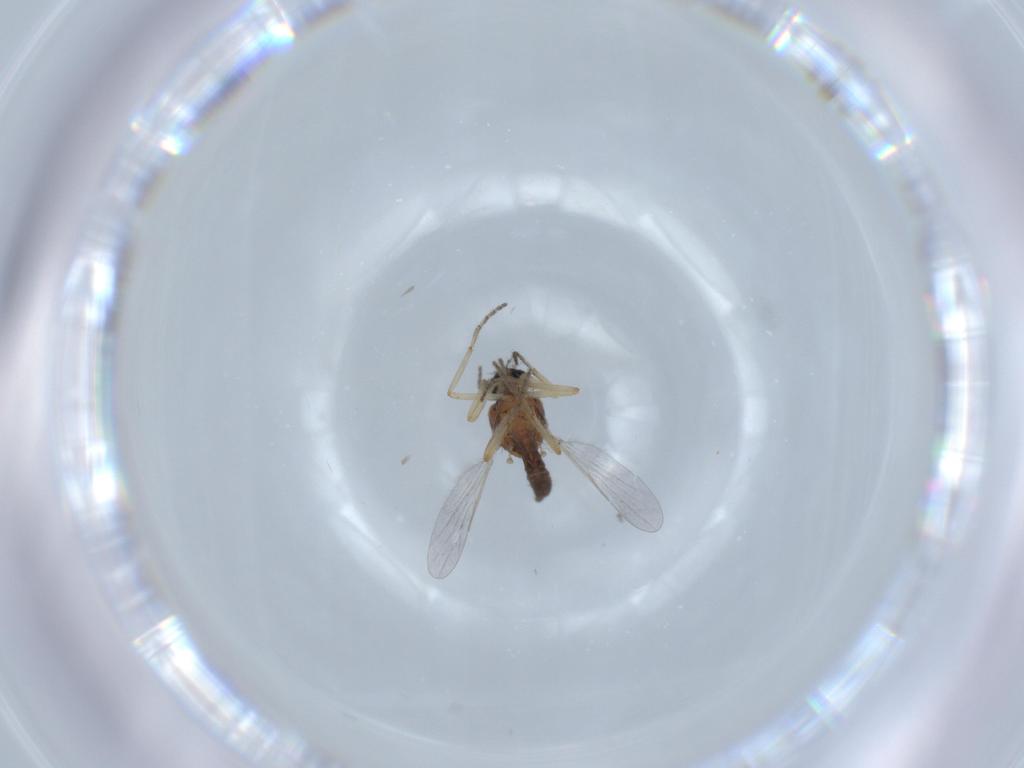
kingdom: Animalia
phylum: Arthropoda
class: Insecta
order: Diptera
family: Ceratopogonidae
